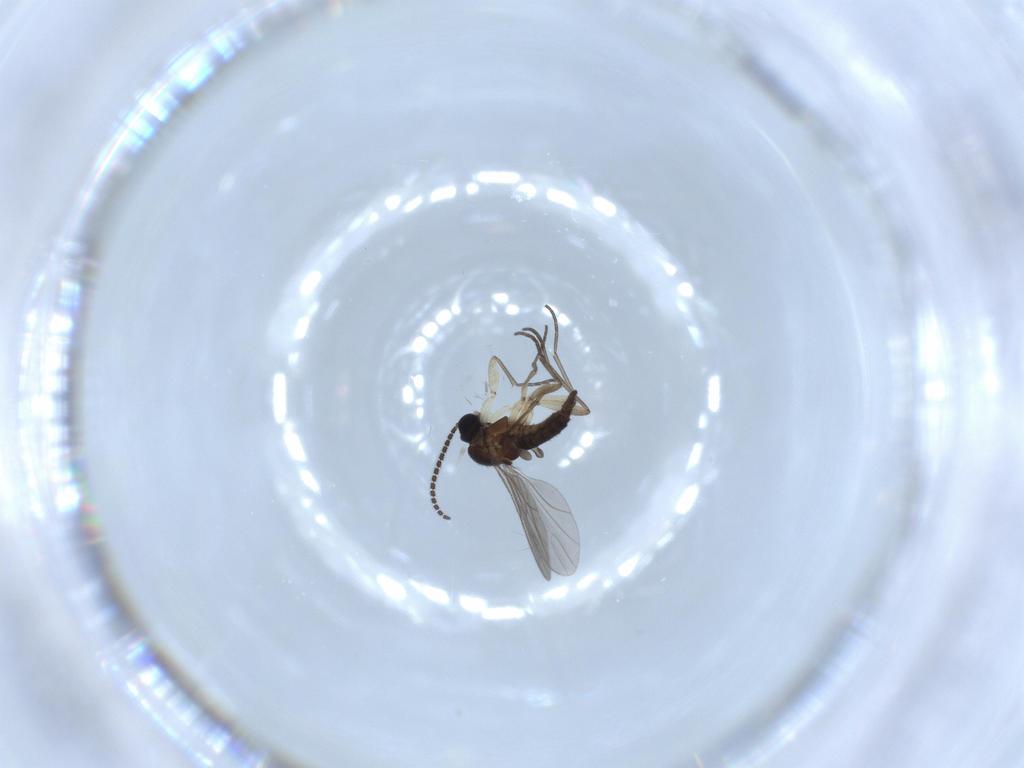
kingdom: Animalia
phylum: Arthropoda
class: Insecta
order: Diptera
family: Sciaridae
